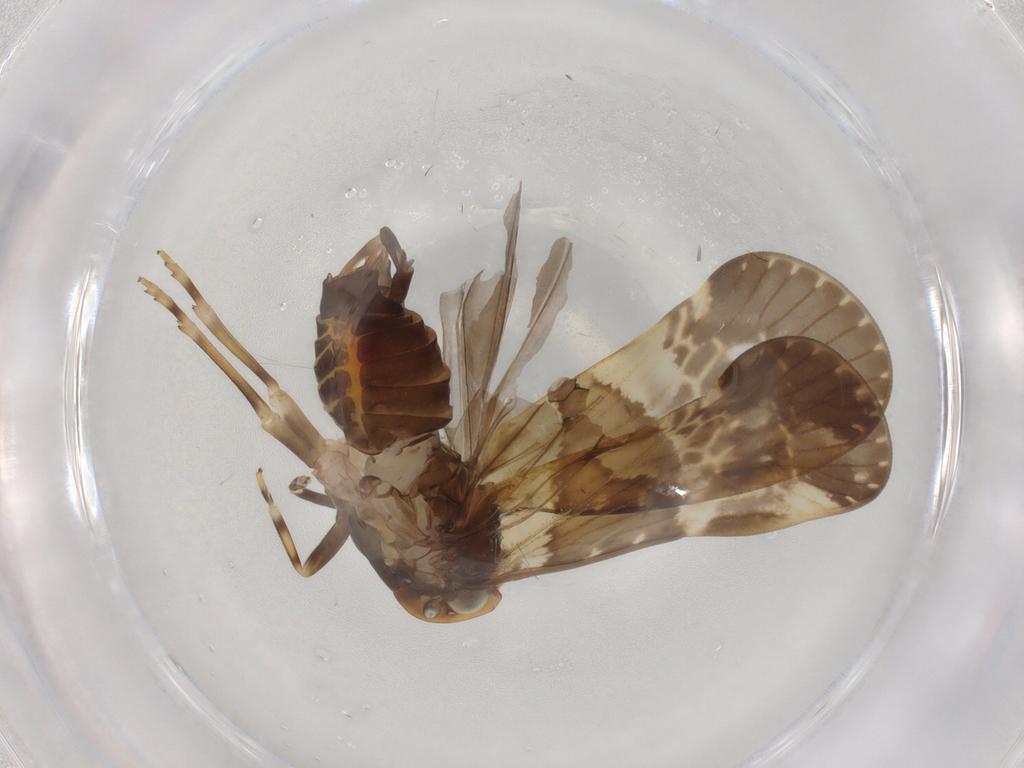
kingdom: Animalia
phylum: Arthropoda
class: Insecta
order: Hemiptera
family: Cixiidae
